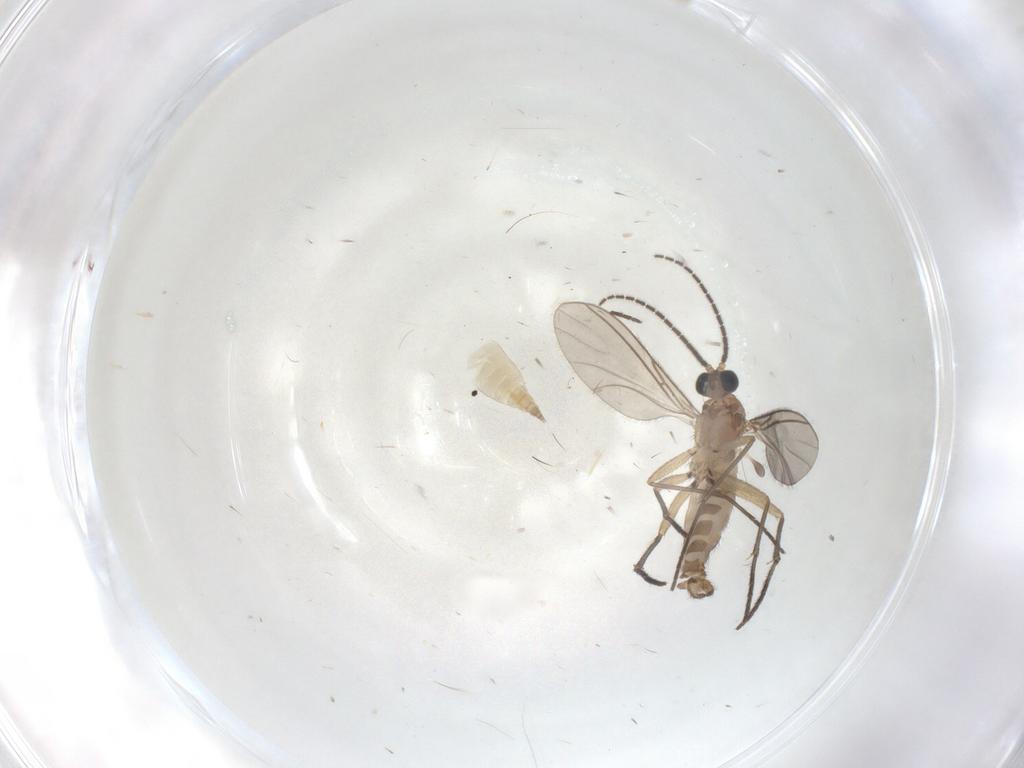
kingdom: Animalia
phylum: Arthropoda
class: Insecta
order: Diptera
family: Sciaridae
